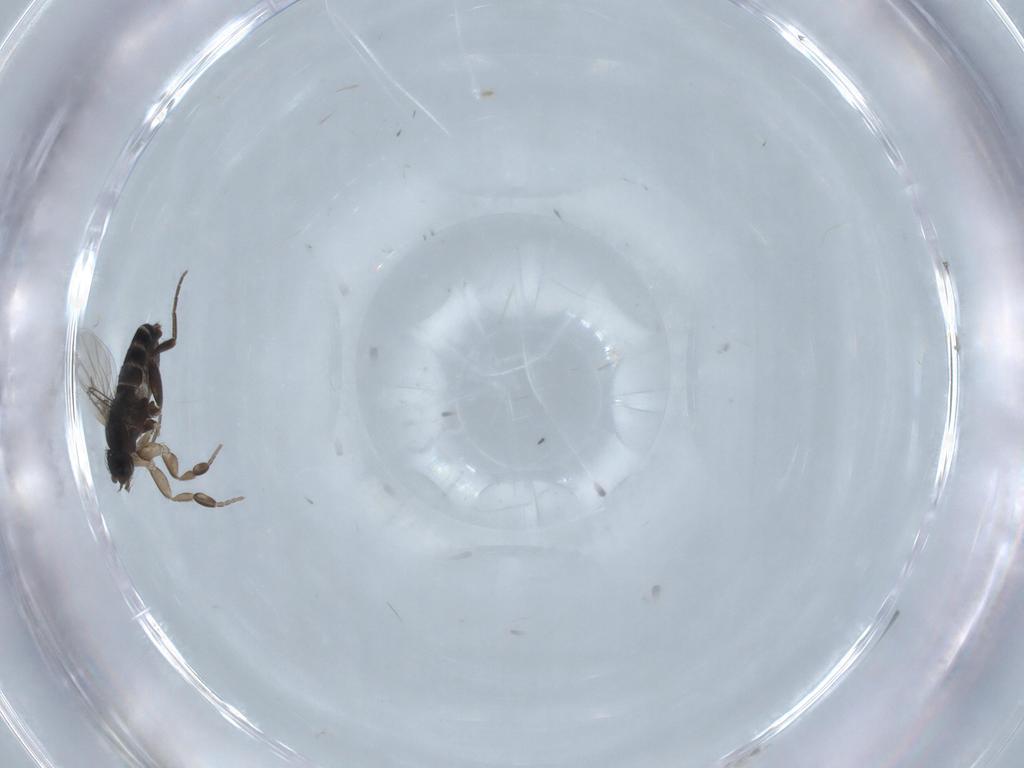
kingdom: Animalia
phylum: Arthropoda
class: Insecta
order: Diptera
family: Phoridae
